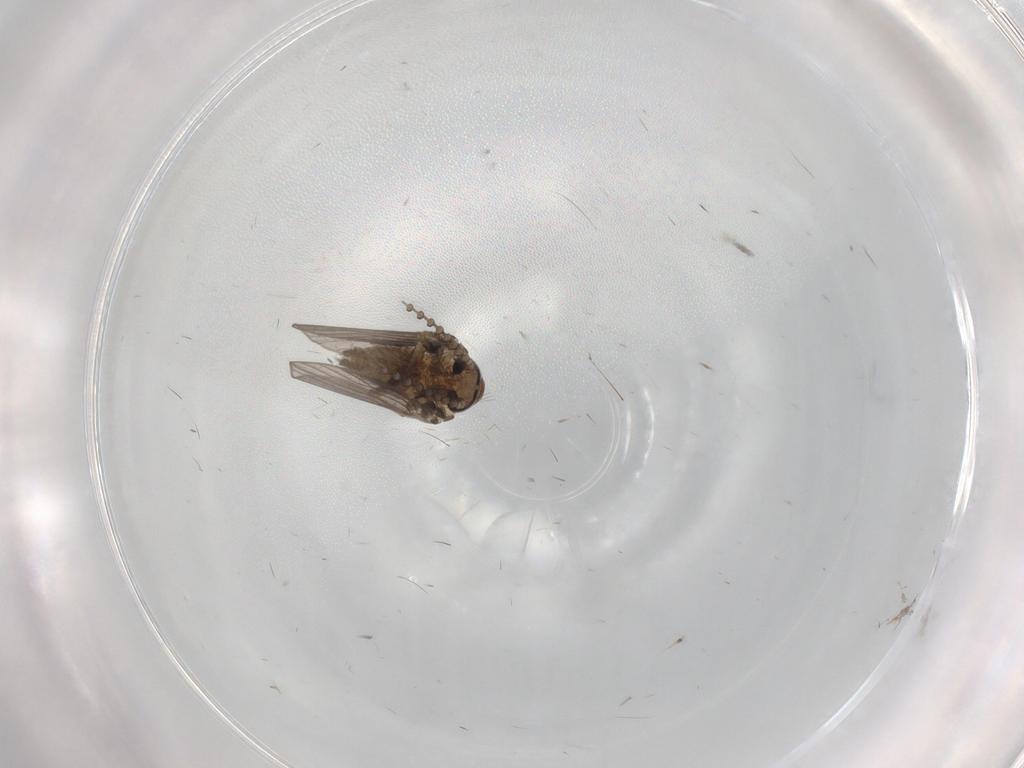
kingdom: Animalia
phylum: Arthropoda
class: Insecta
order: Diptera
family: Psychodidae
